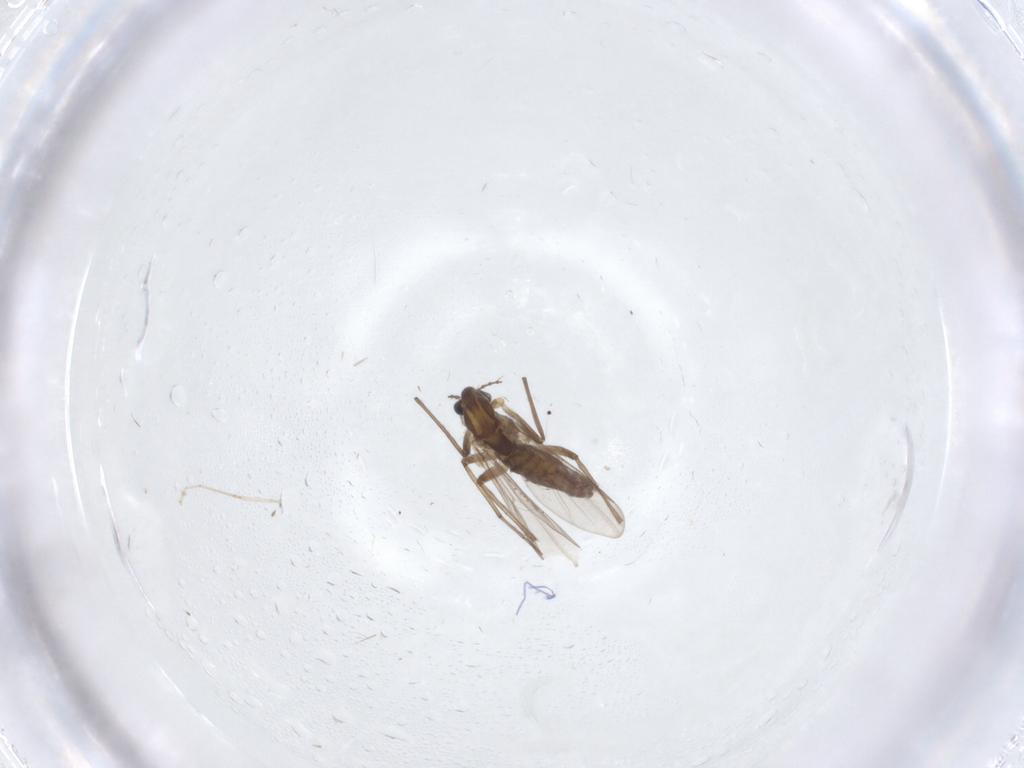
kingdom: Animalia
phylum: Arthropoda
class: Insecta
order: Diptera
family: Chironomidae
